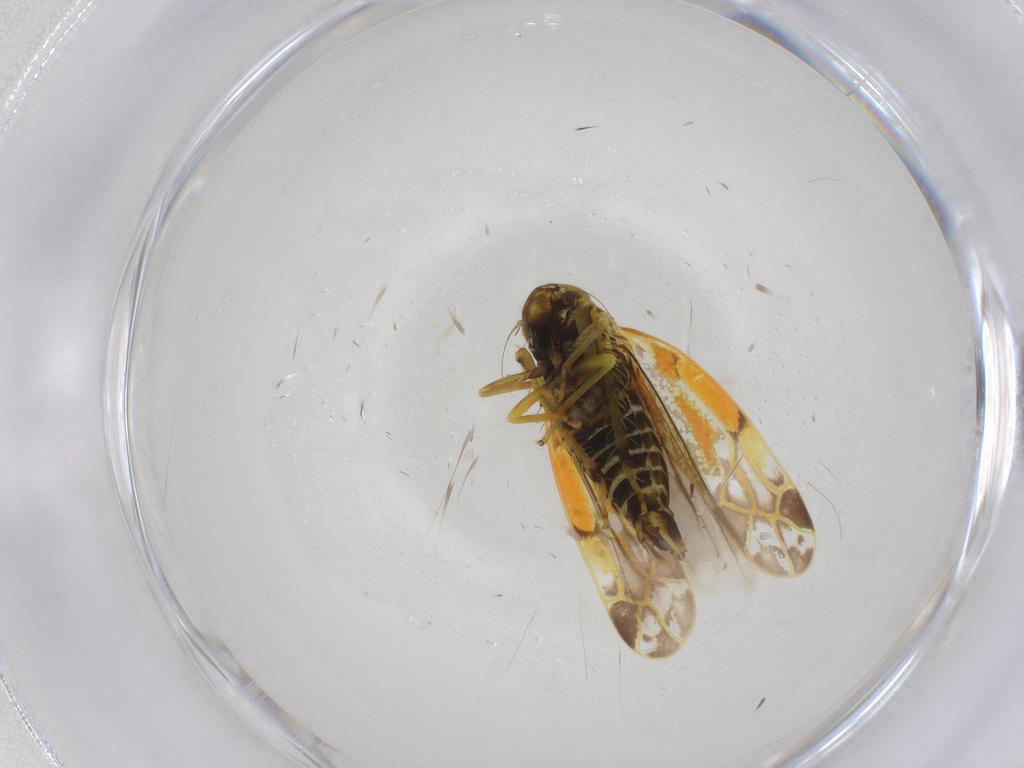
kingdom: Animalia
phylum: Arthropoda
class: Insecta
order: Hemiptera
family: Cicadellidae
